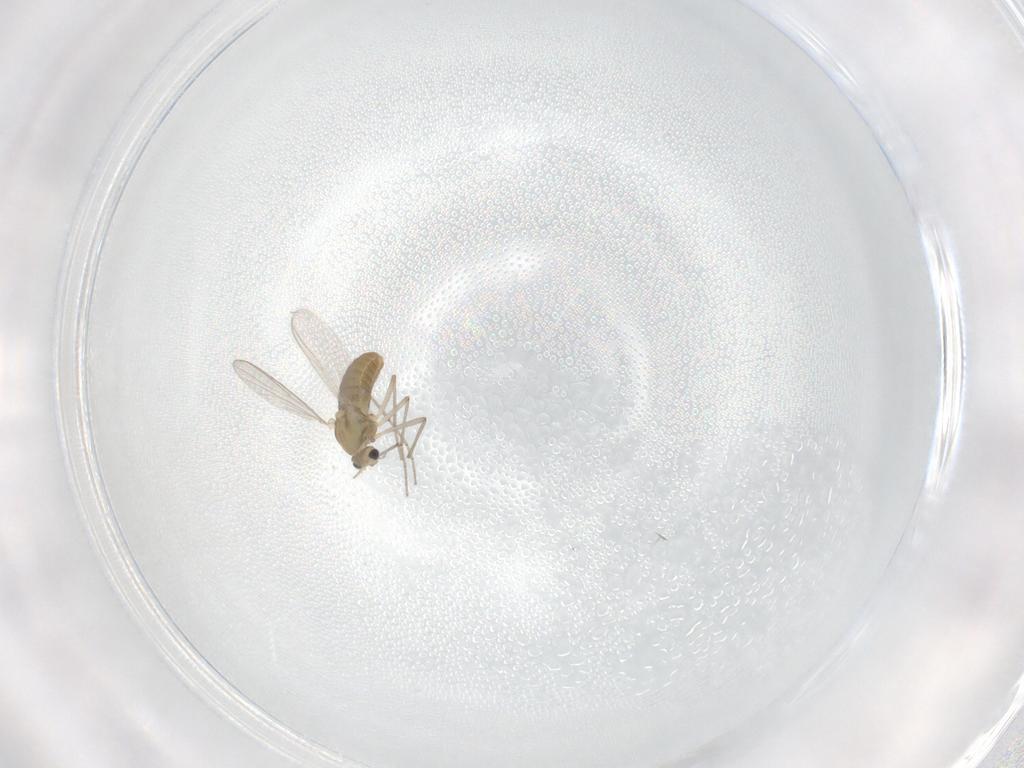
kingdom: Animalia
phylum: Arthropoda
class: Insecta
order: Diptera
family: Chironomidae
